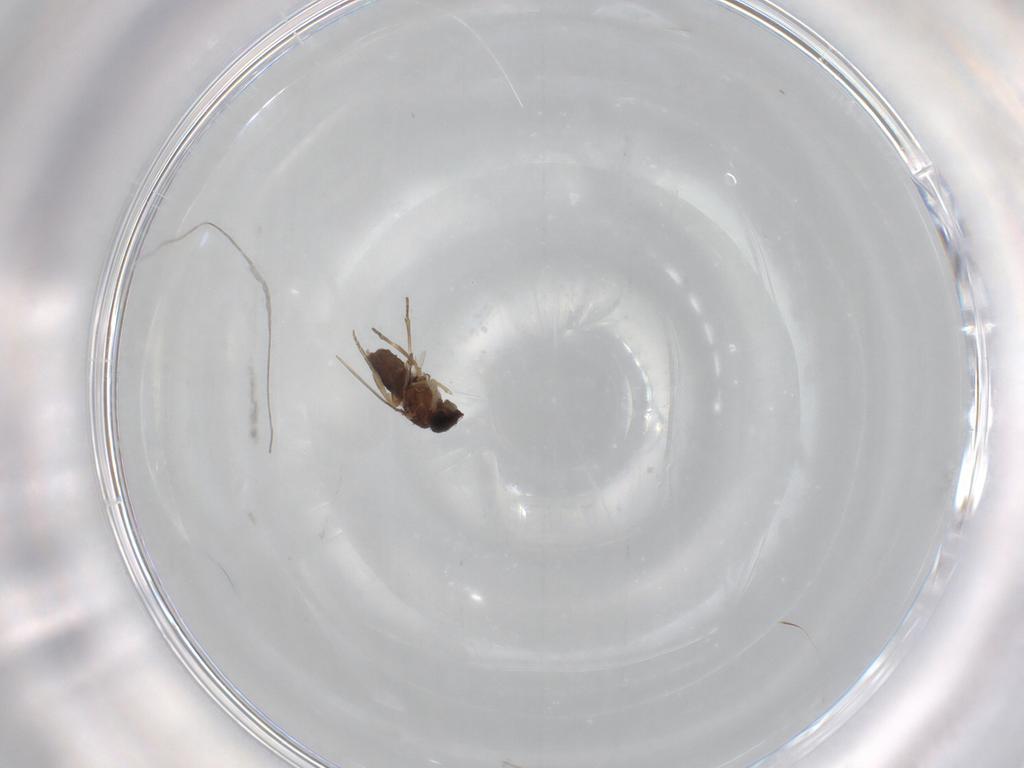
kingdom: Animalia
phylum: Arthropoda
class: Insecta
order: Diptera
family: Phoridae
